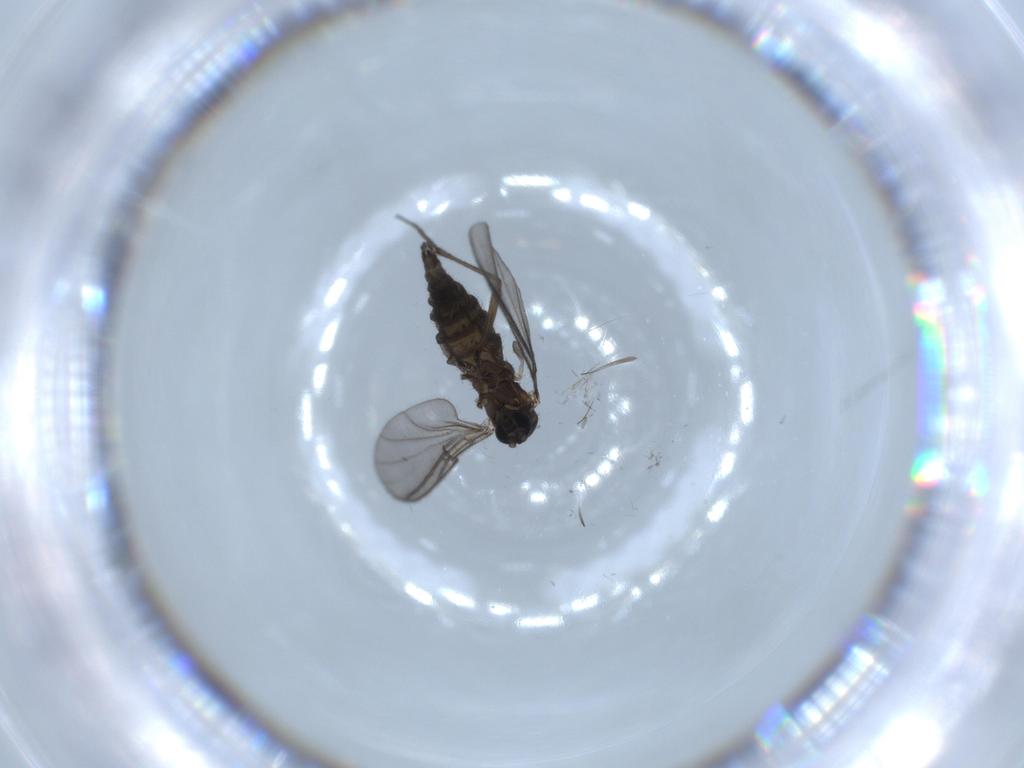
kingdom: Animalia
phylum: Arthropoda
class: Insecta
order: Diptera
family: Sciaridae
